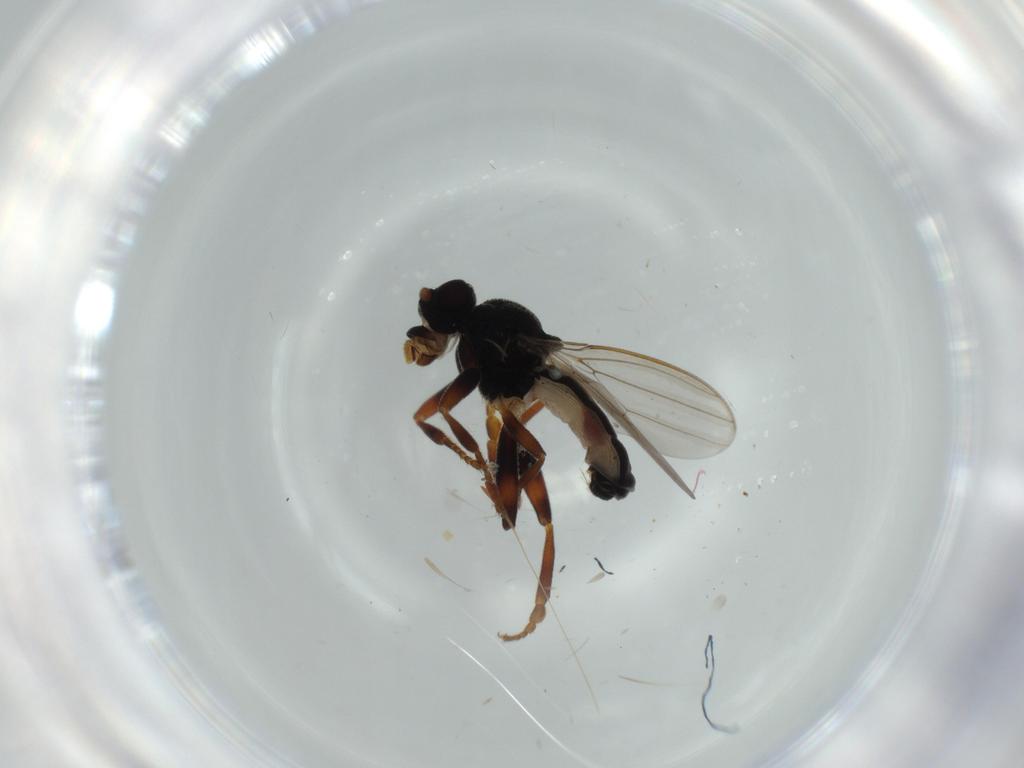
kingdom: Animalia
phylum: Arthropoda
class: Insecta
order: Diptera
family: Sphaeroceridae
